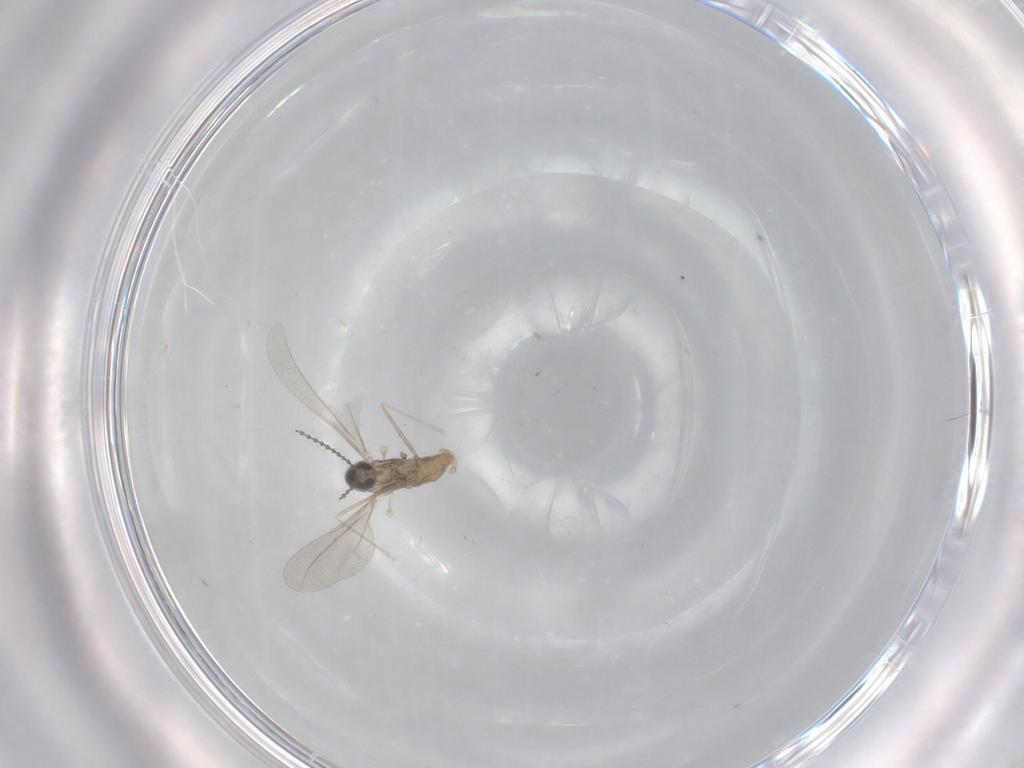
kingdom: Animalia
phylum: Arthropoda
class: Insecta
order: Diptera
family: Cecidomyiidae
